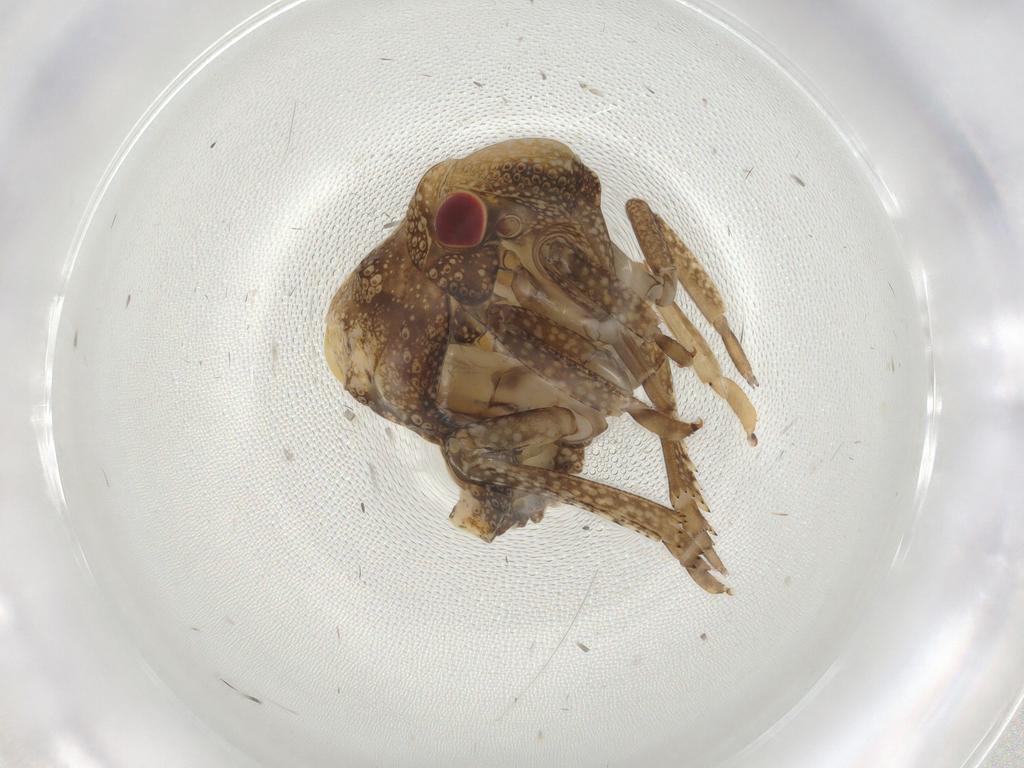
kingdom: Animalia
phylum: Arthropoda
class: Insecta
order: Hemiptera
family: Acanaloniidae
